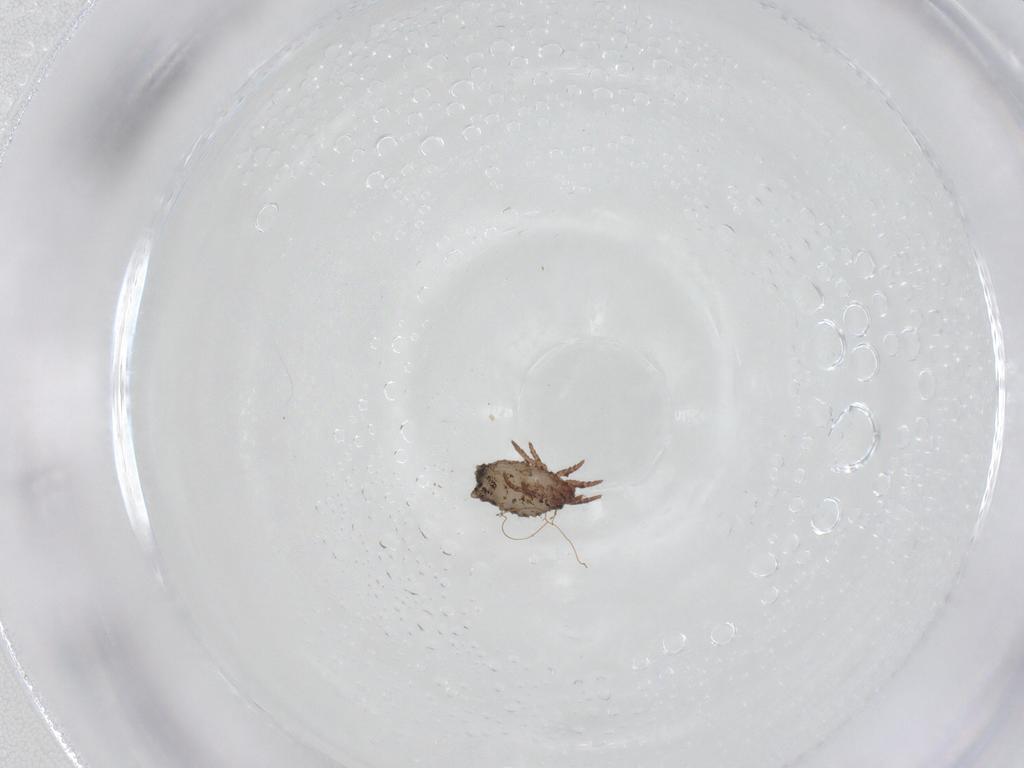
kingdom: Animalia
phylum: Arthropoda
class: Arachnida
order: Sarcoptiformes
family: Crotoniidae
